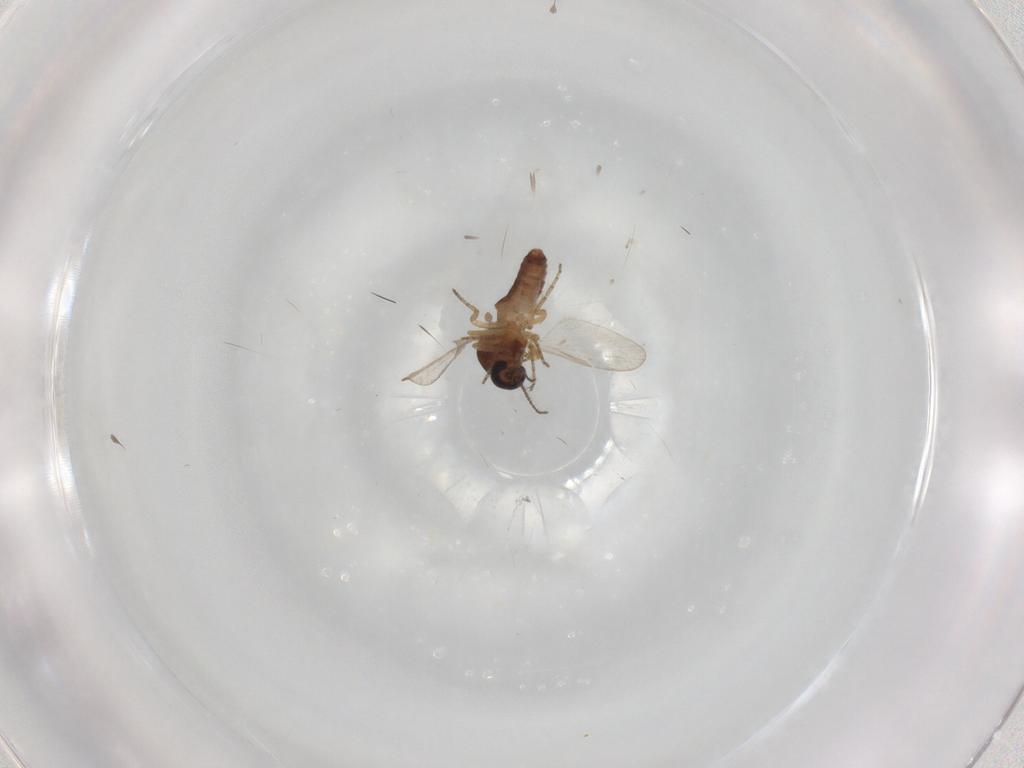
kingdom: Animalia
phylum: Arthropoda
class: Insecta
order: Diptera
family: Ceratopogonidae
